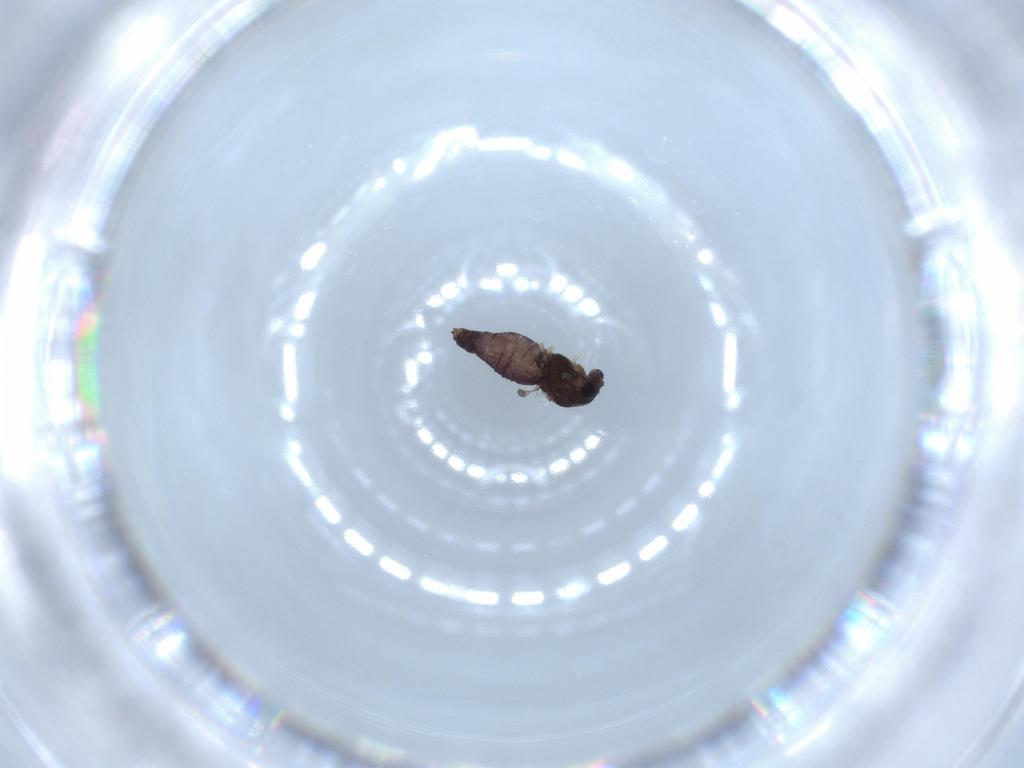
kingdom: Animalia
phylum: Arthropoda
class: Insecta
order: Diptera
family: Chironomidae
